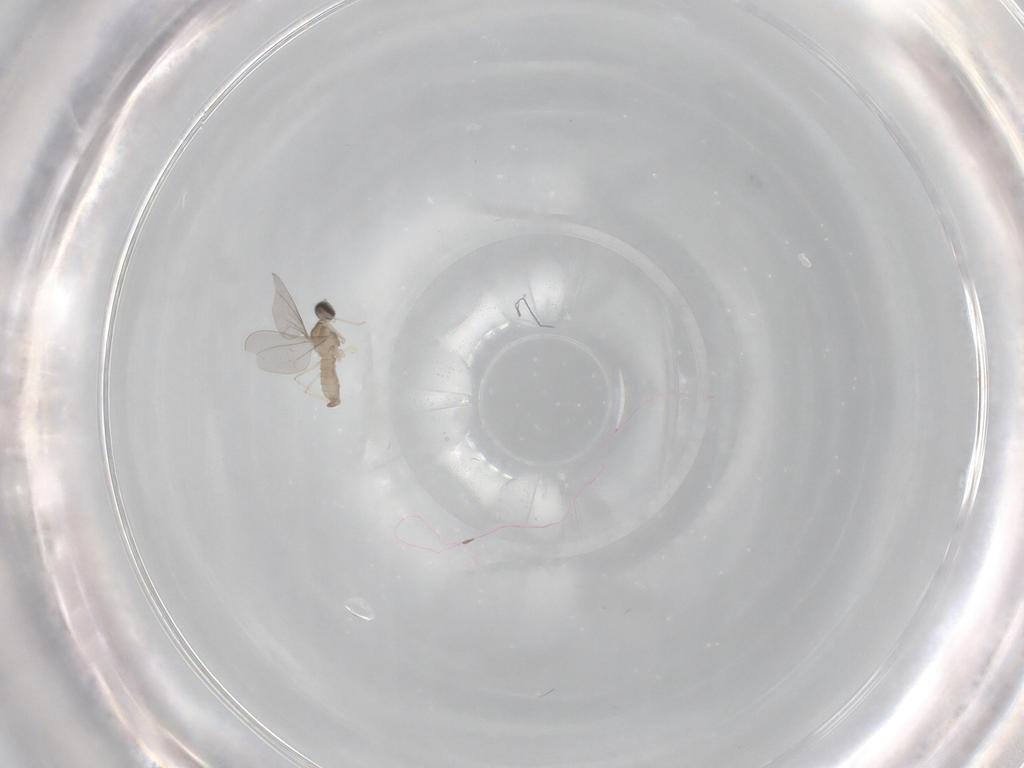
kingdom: Animalia
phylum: Arthropoda
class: Insecta
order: Diptera
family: Cecidomyiidae
